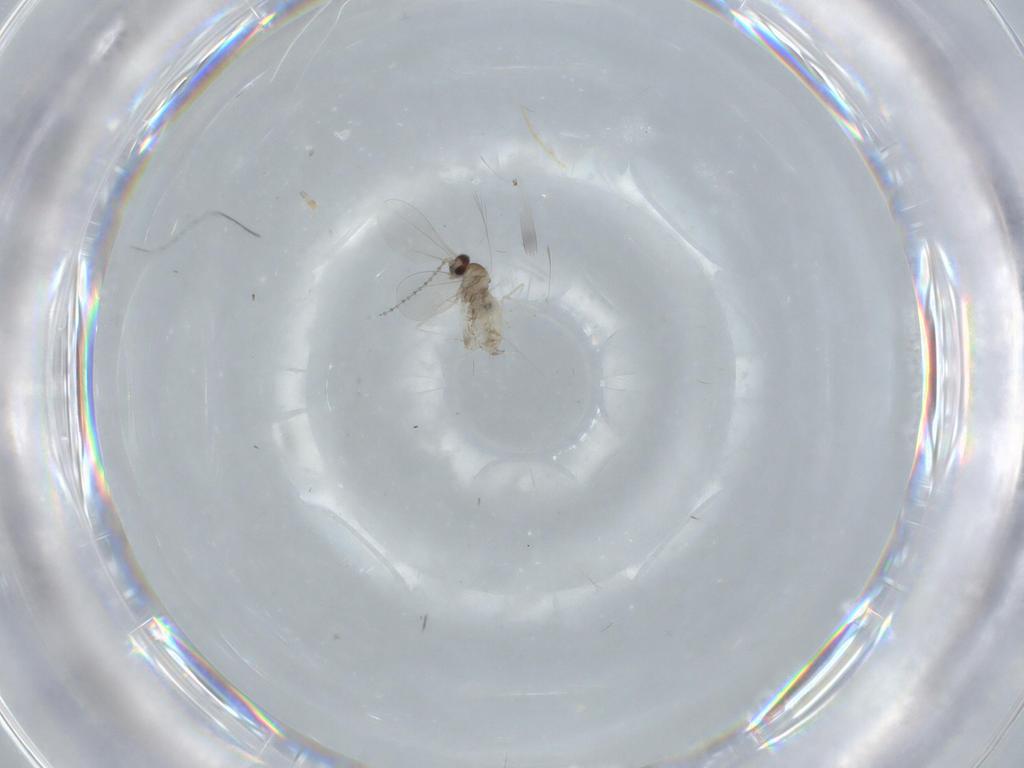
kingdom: Animalia
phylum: Arthropoda
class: Insecta
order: Diptera
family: Cecidomyiidae
